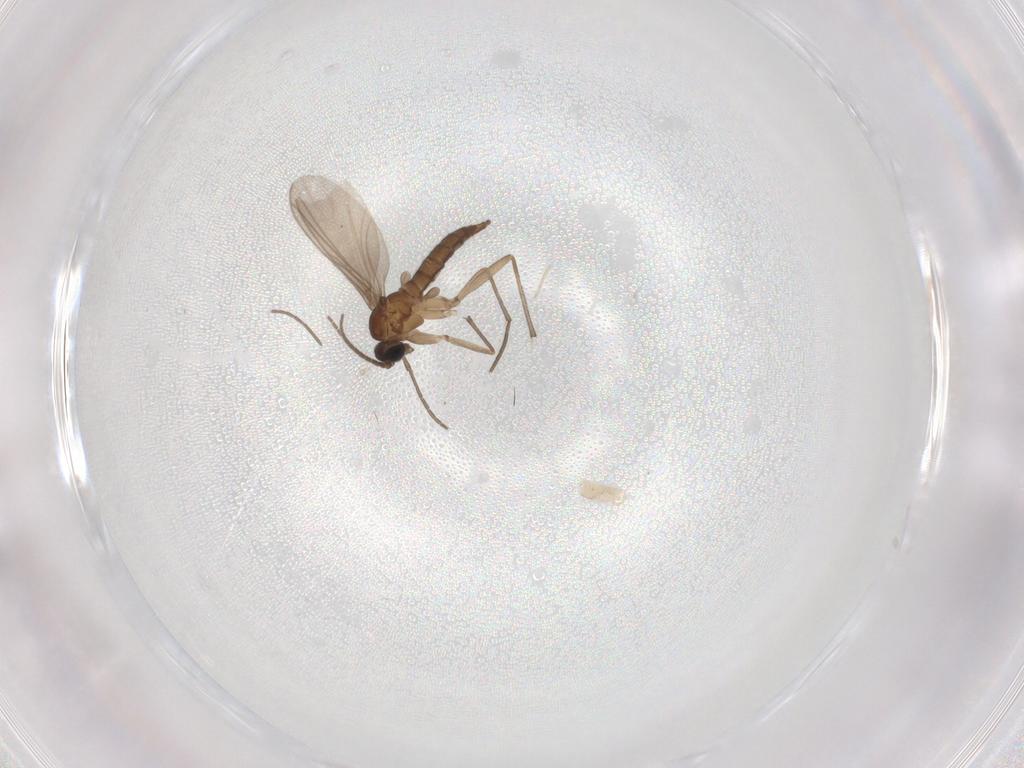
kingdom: Animalia
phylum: Arthropoda
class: Insecta
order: Diptera
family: Sciaridae
